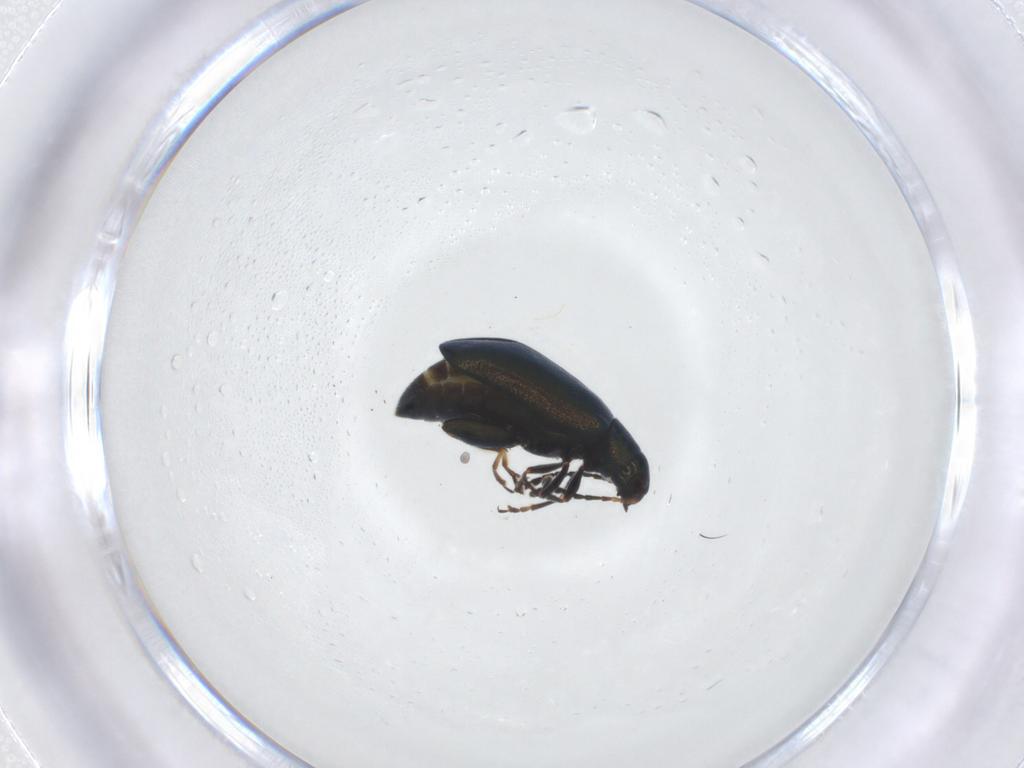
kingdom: Animalia
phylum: Arthropoda
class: Insecta
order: Coleoptera
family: Chrysomelidae
